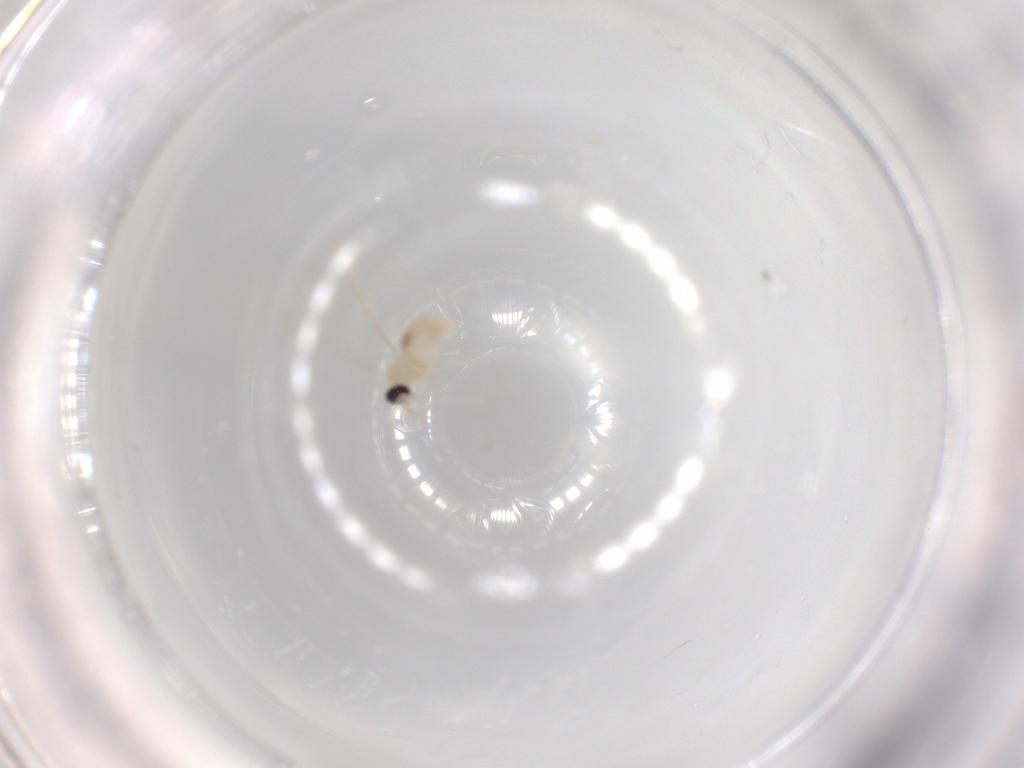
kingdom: Animalia
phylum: Arthropoda
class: Insecta
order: Diptera
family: Cecidomyiidae
